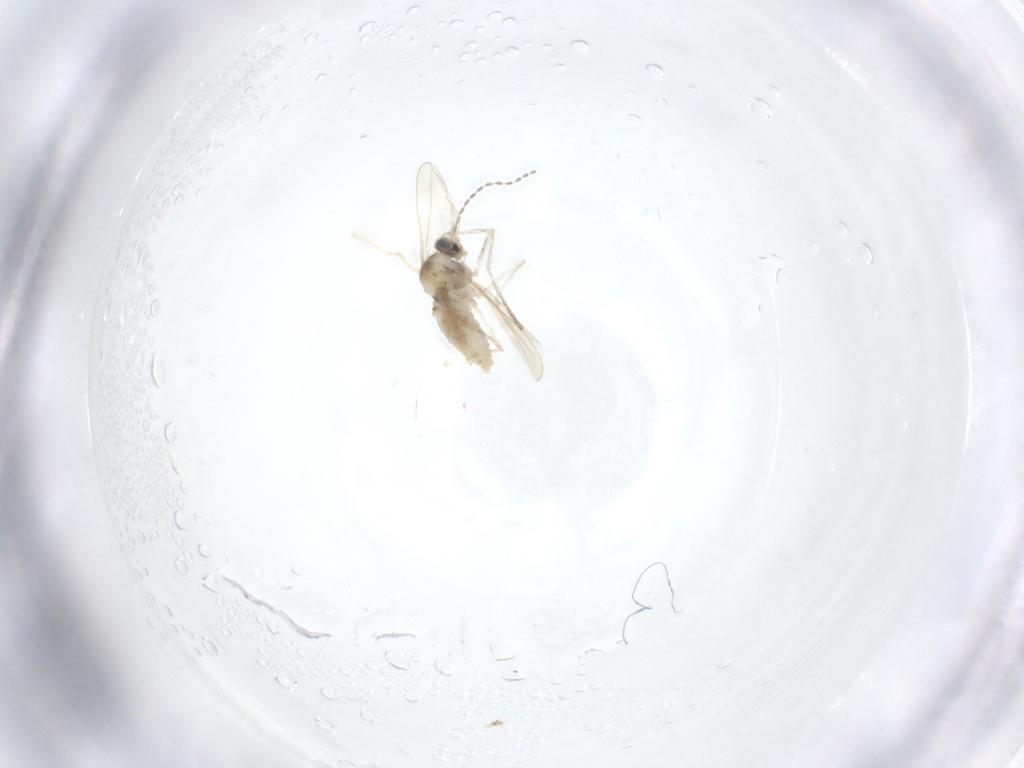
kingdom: Animalia
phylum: Arthropoda
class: Insecta
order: Diptera
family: Cecidomyiidae
